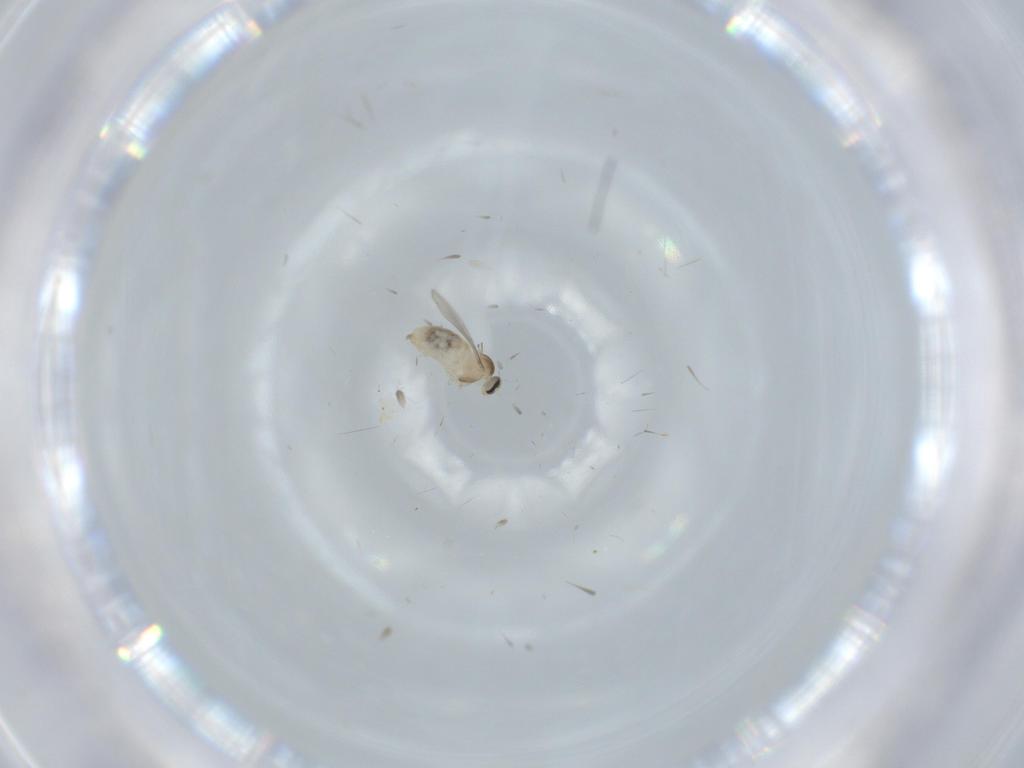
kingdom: Animalia
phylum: Arthropoda
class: Insecta
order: Diptera
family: Cecidomyiidae
